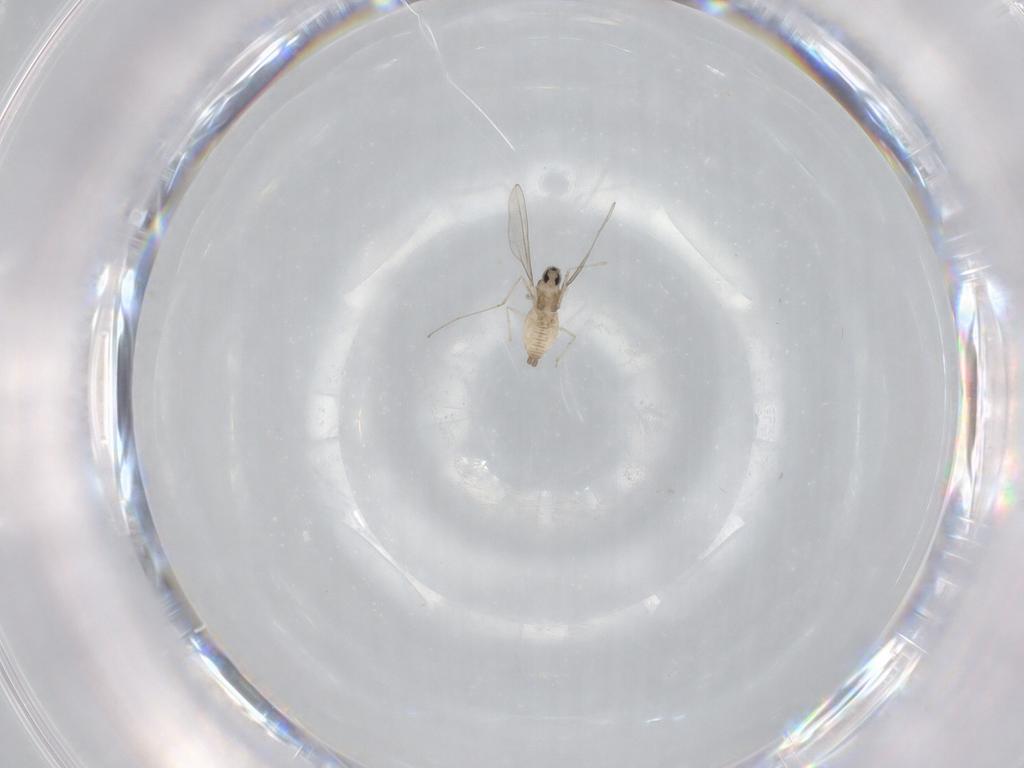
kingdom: Animalia
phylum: Arthropoda
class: Insecta
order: Diptera
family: Cecidomyiidae
